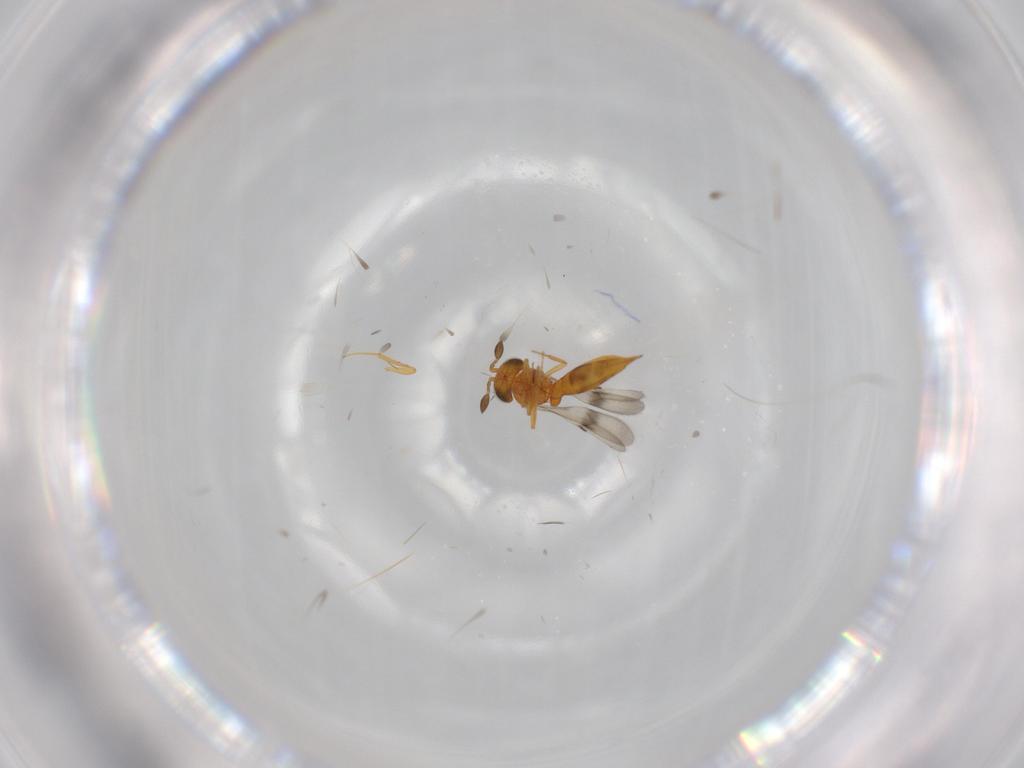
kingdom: Animalia
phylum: Arthropoda
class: Insecta
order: Hymenoptera
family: Scelionidae
